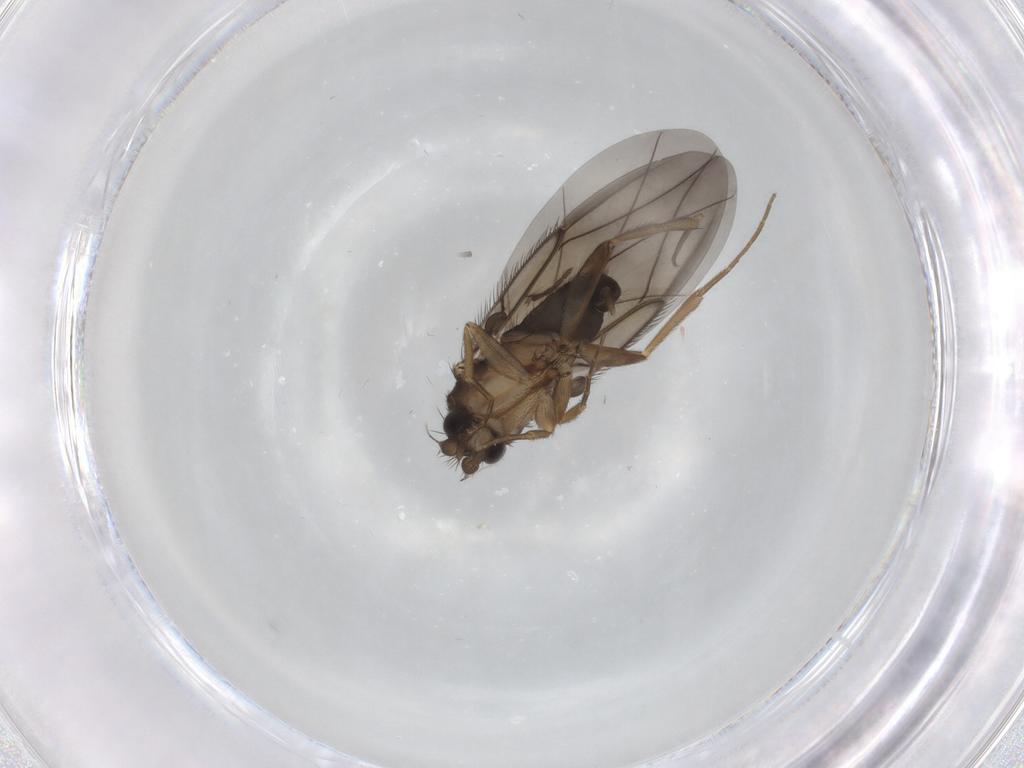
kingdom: Animalia
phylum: Arthropoda
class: Insecta
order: Diptera
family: Phoridae
